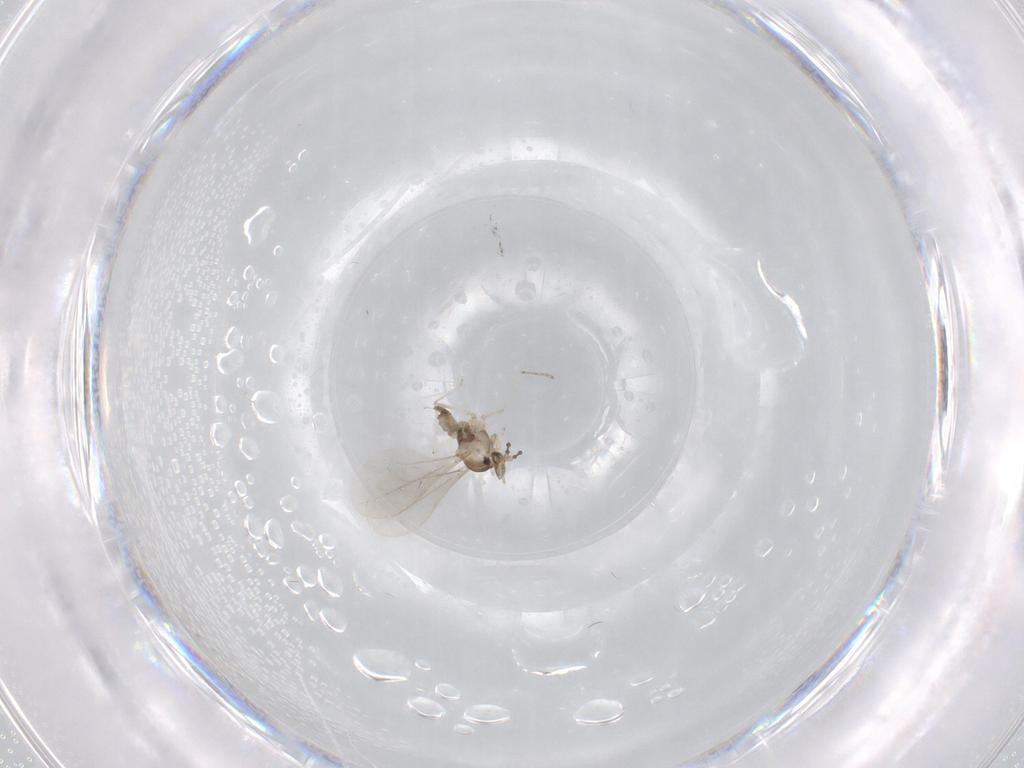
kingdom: Animalia
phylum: Arthropoda
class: Insecta
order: Diptera
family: Cecidomyiidae
